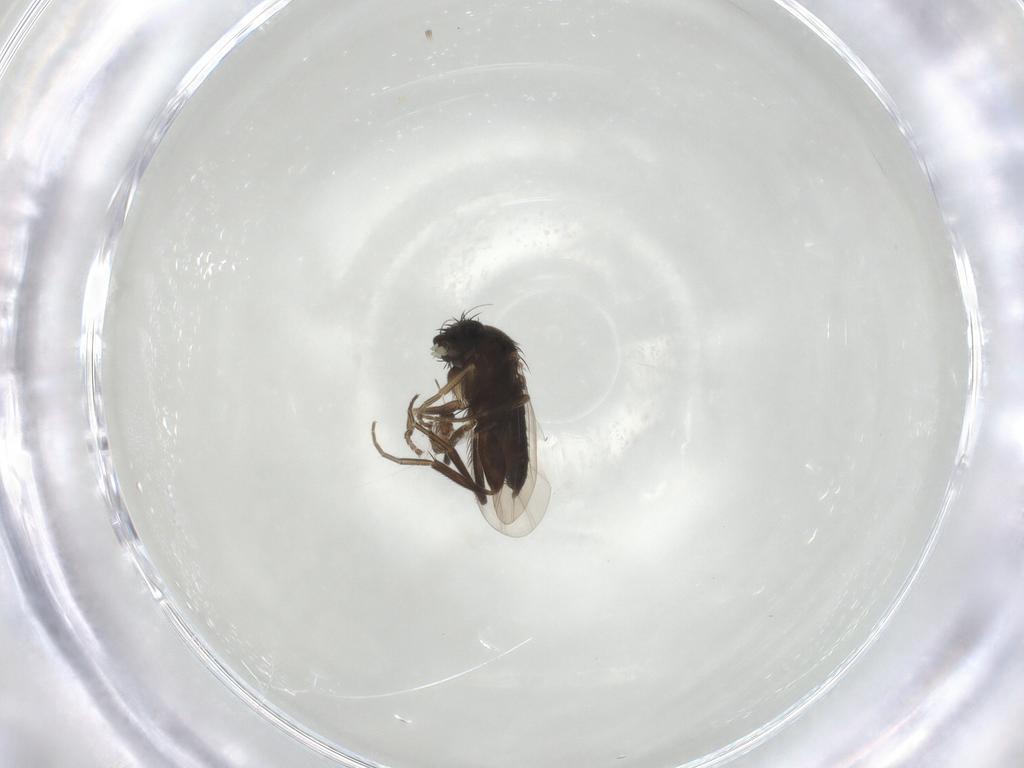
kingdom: Animalia
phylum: Arthropoda
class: Insecta
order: Hymenoptera
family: Mymaridae
